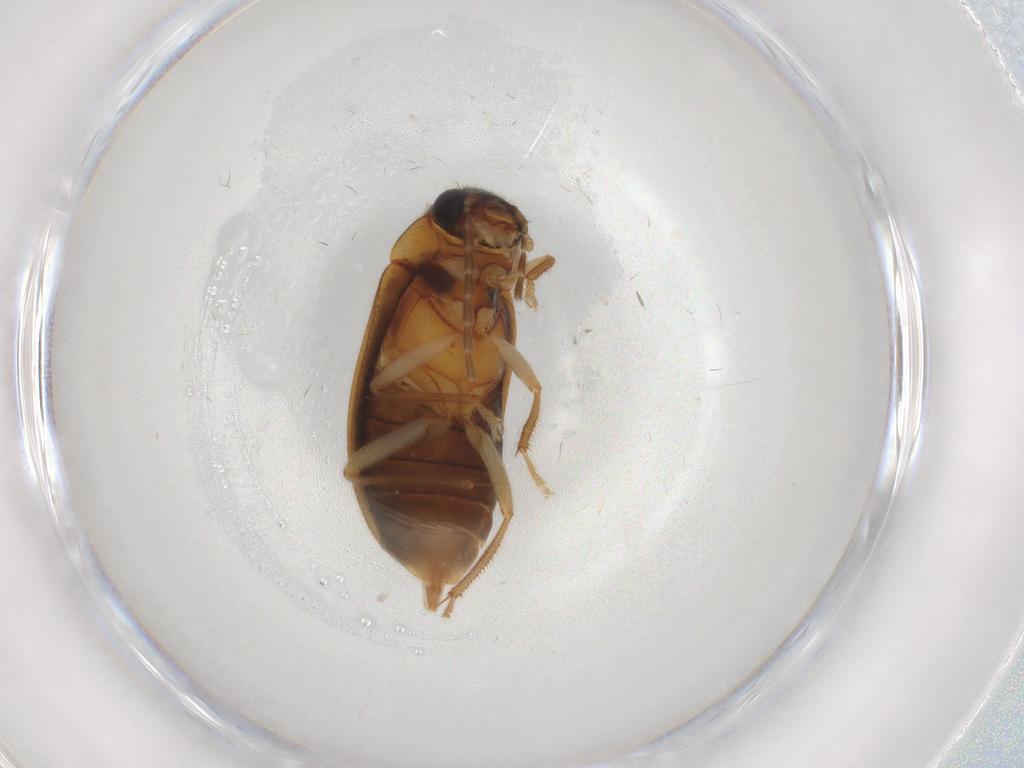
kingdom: Animalia
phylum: Arthropoda
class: Insecta
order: Coleoptera
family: Ptilodactylidae
